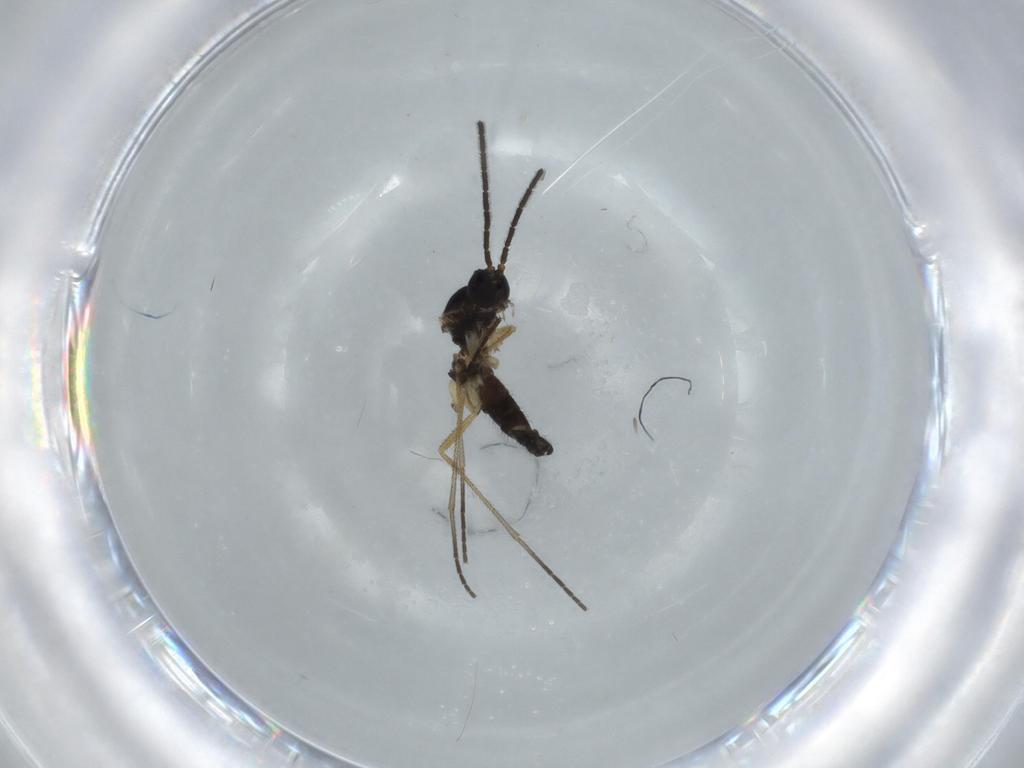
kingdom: Animalia
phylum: Arthropoda
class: Insecta
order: Diptera
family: Sciaridae
